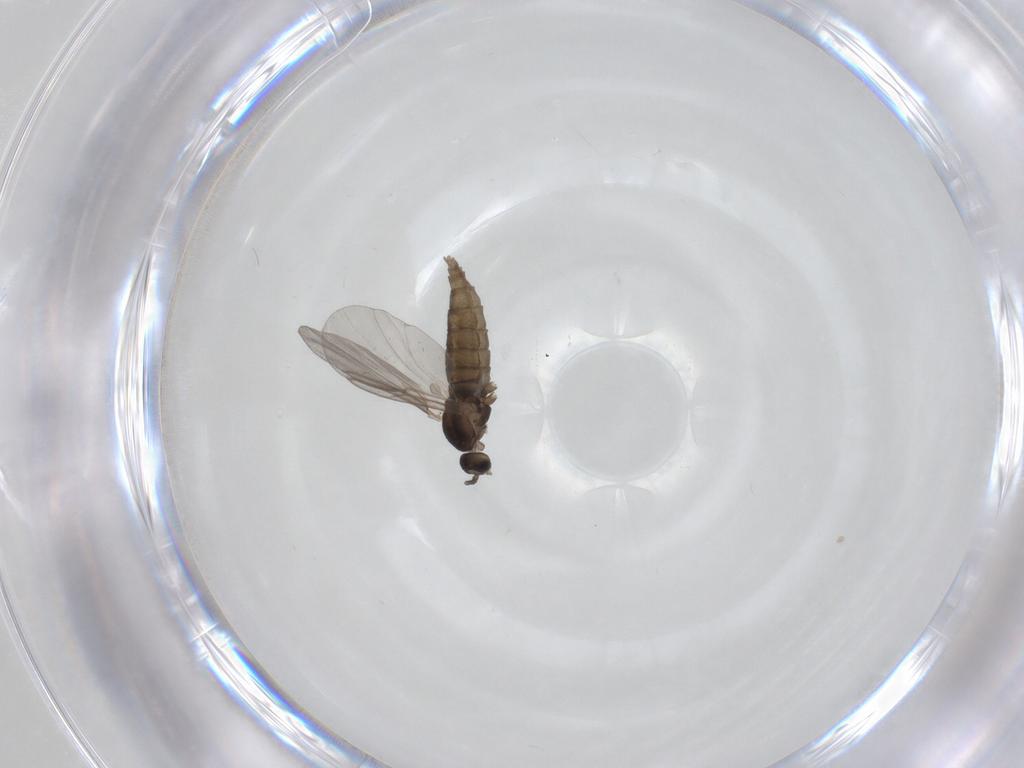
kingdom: Animalia
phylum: Arthropoda
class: Insecta
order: Diptera
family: Cecidomyiidae
